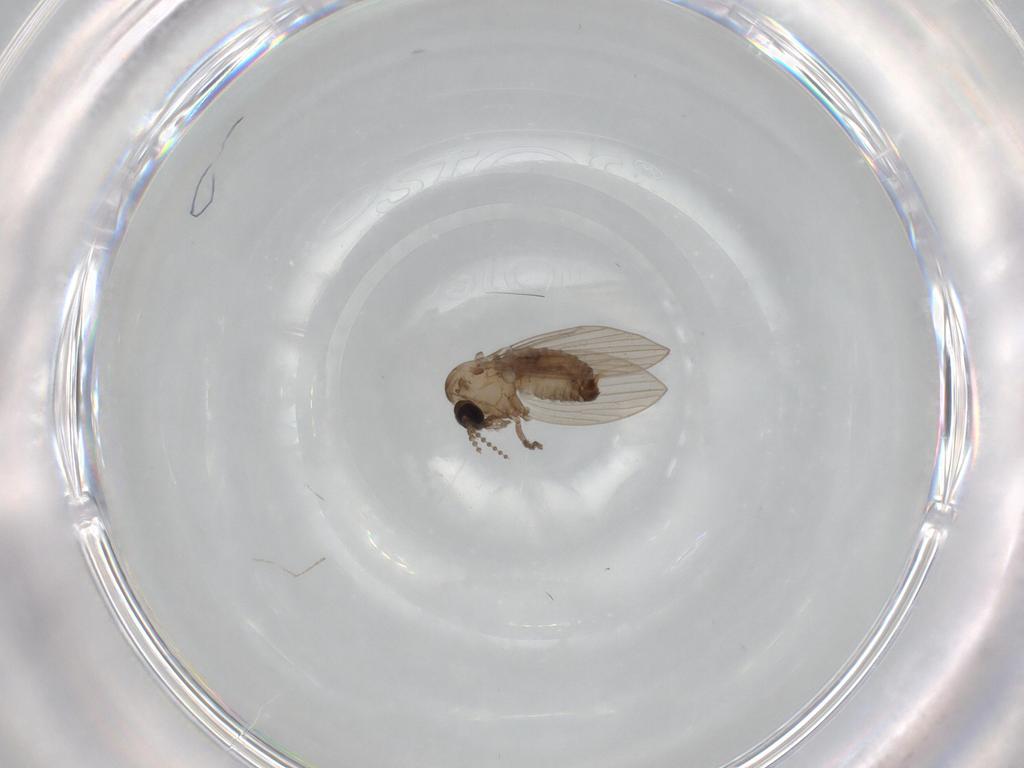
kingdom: Animalia
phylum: Arthropoda
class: Insecta
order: Diptera
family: Psychodidae
